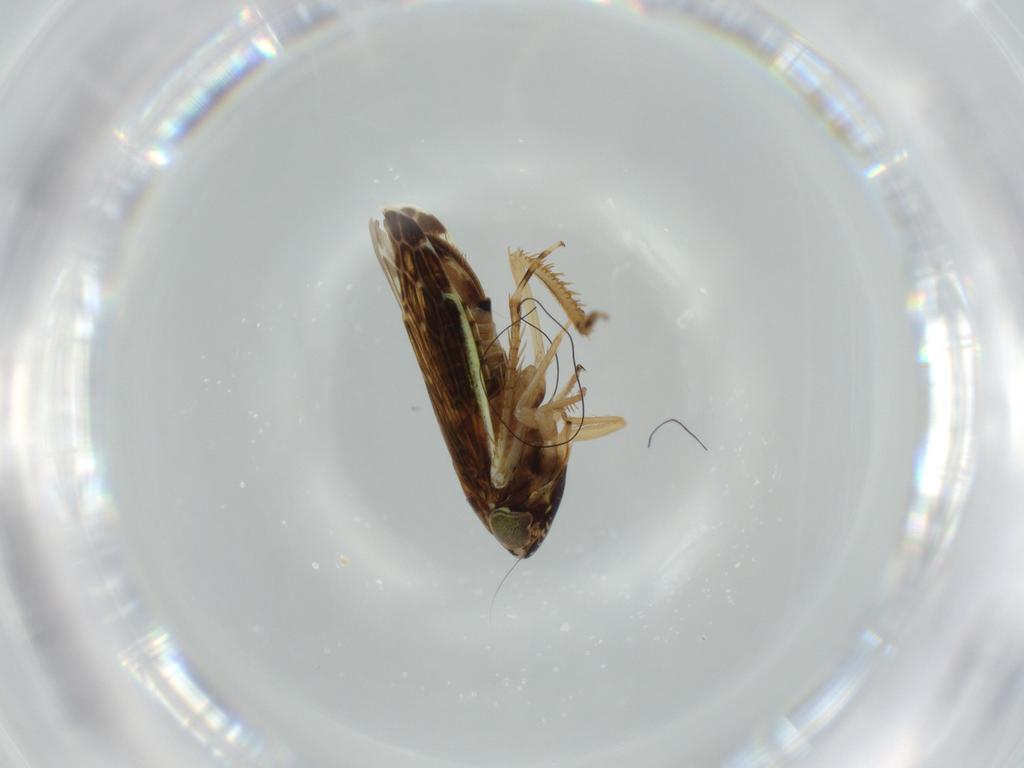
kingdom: Animalia
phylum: Arthropoda
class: Insecta
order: Hemiptera
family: Cicadellidae
